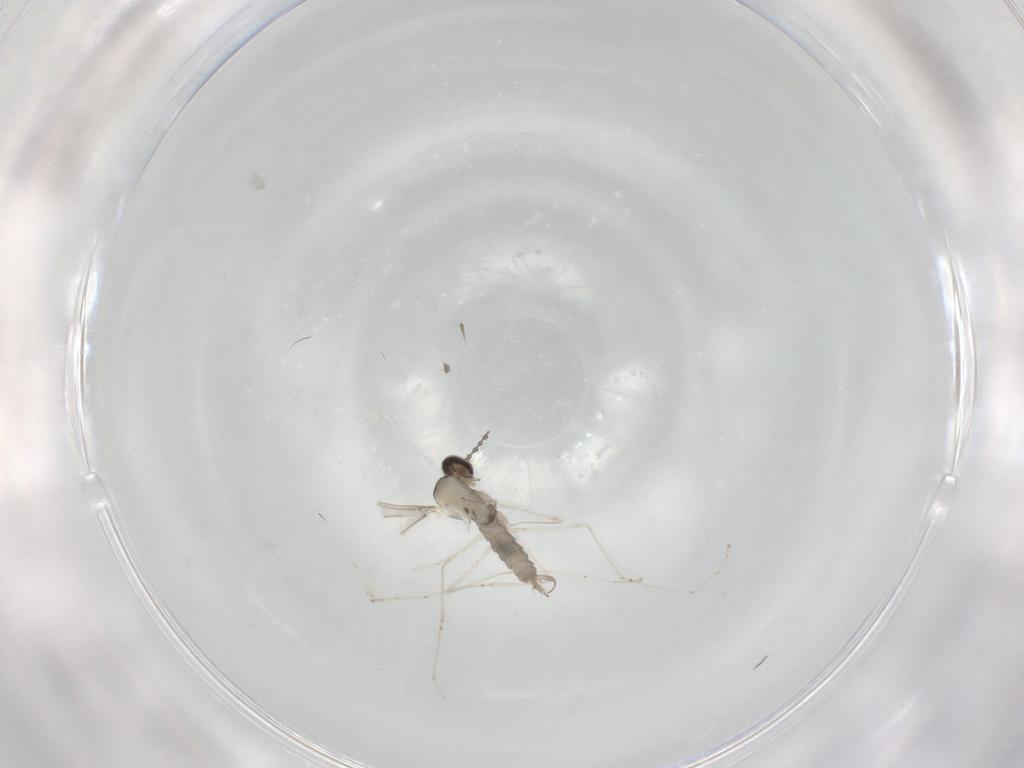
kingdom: Animalia
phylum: Arthropoda
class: Insecta
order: Diptera
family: Cecidomyiidae
